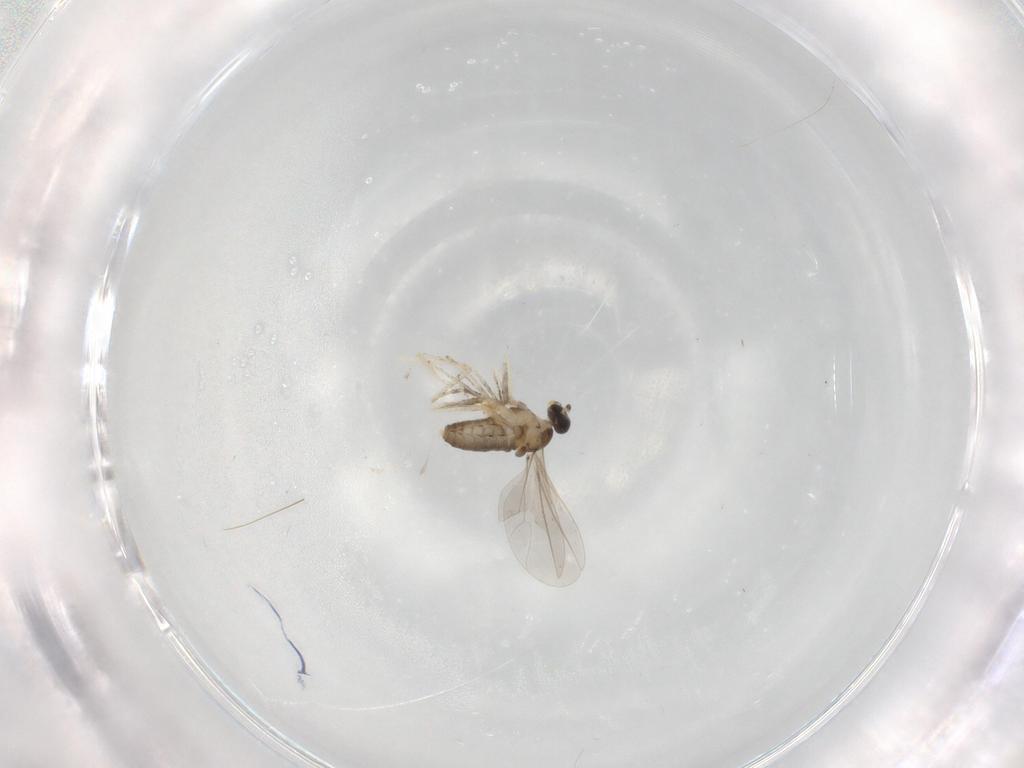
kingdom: Animalia
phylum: Arthropoda
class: Insecta
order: Diptera
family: Cecidomyiidae
